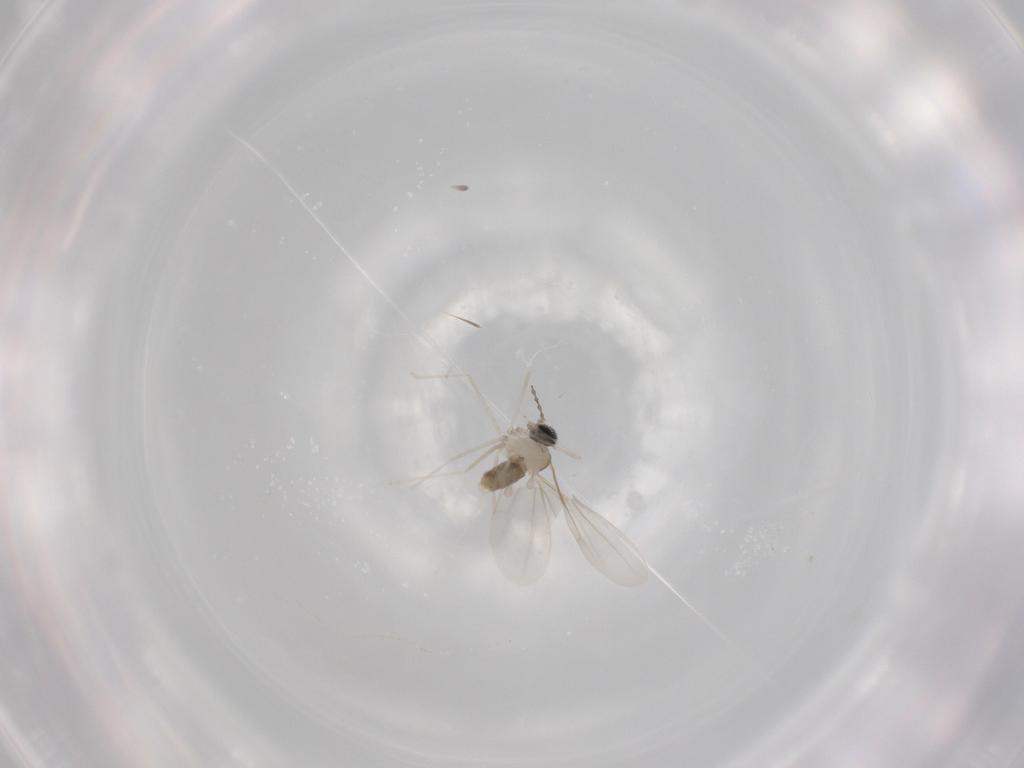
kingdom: Animalia
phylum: Arthropoda
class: Insecta
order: Diptera
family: Cecidomyiidae
